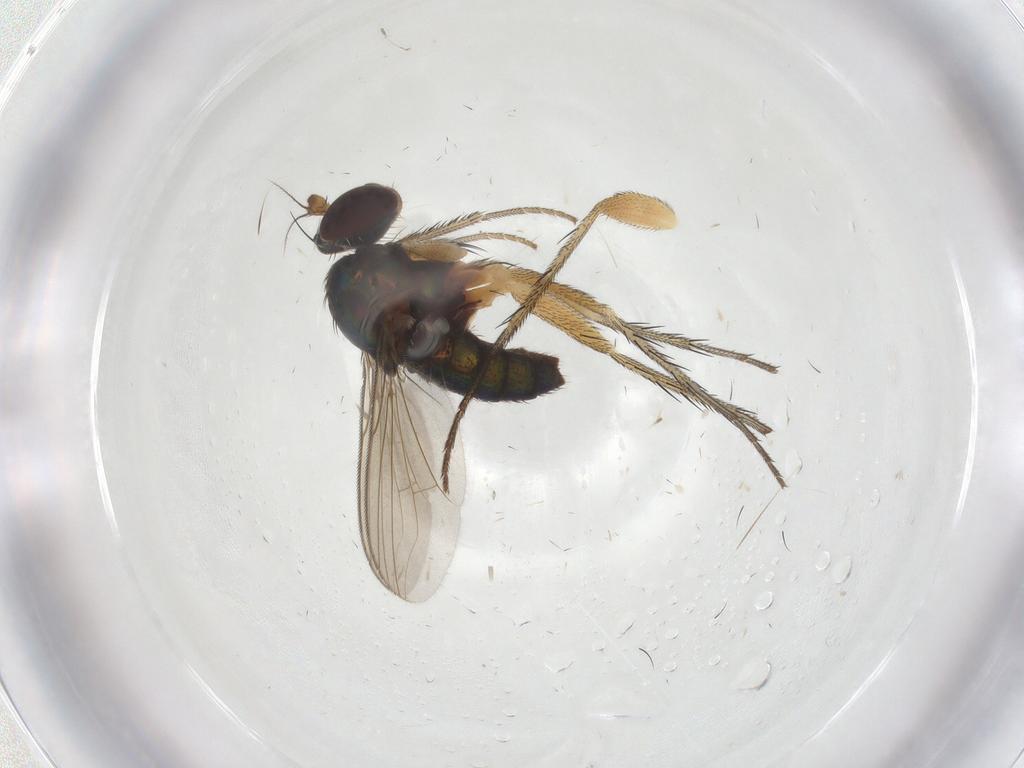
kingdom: Animalia
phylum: Arthropoda
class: Insecta
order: Diptera
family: Dolichopodidae
